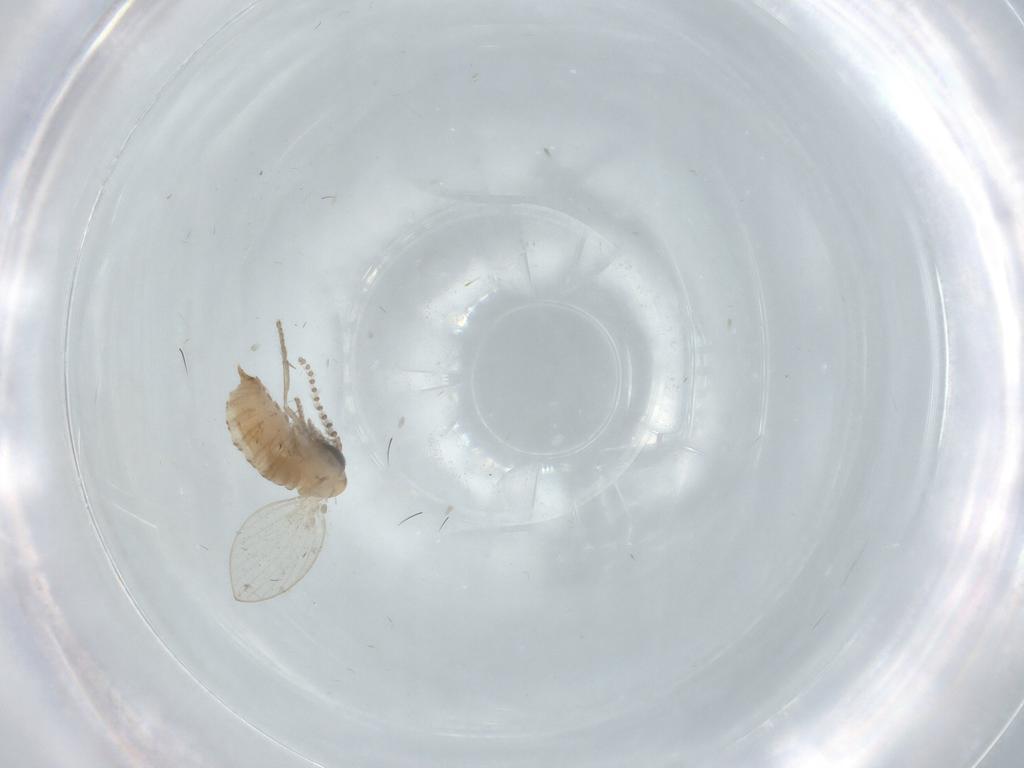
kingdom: Animalia
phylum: Arthropoda
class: Insecta
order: Diptera
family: Psychodidae
